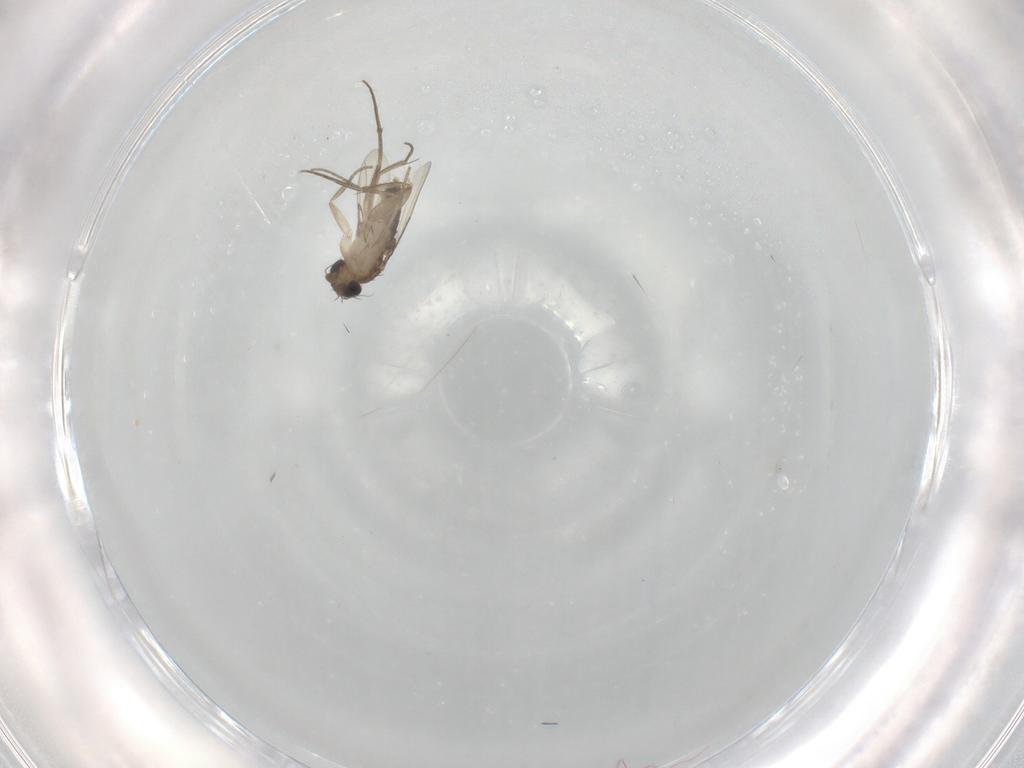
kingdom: Animalia
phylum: Arthropoda
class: Insecta
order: Diptera
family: Phoridae
